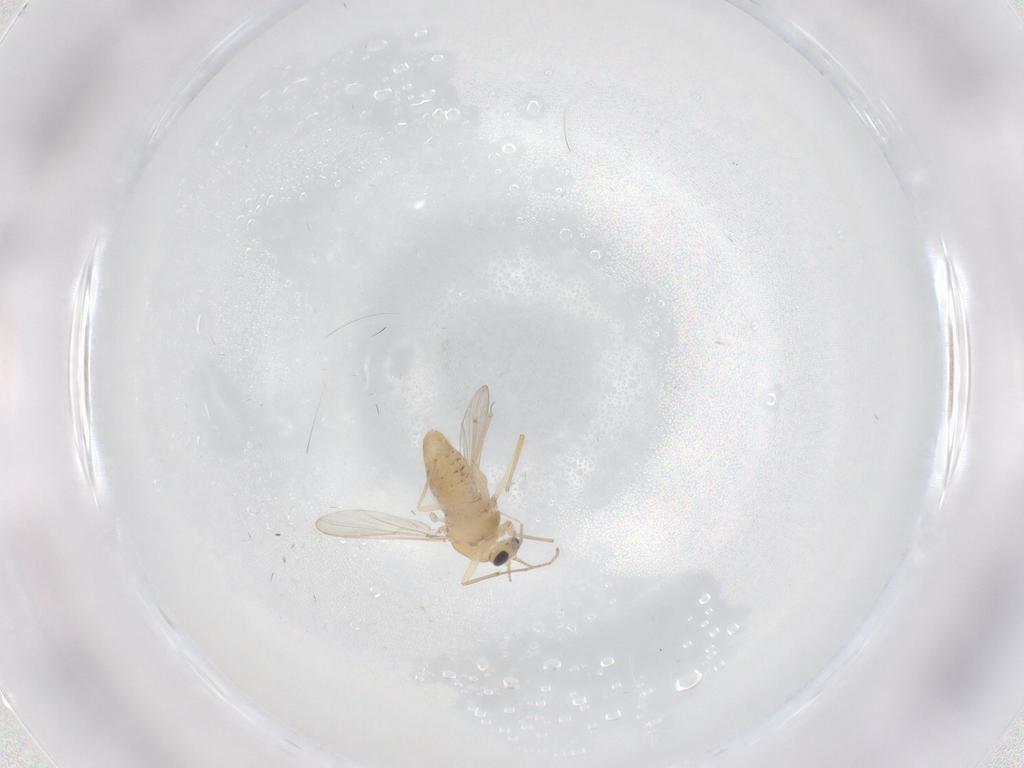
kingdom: Animalia
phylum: Arthropoda
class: Insecta
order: Diptera
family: Chironomidae
